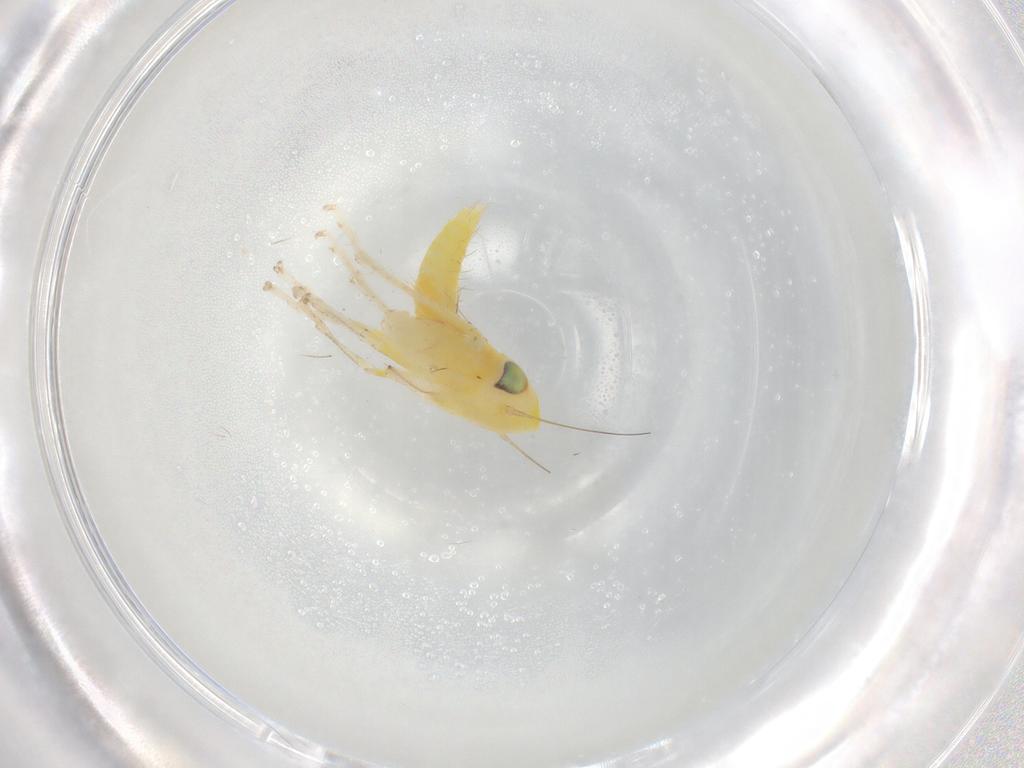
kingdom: Animalia
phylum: Arthropoda
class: Insecta
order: Hemiptera
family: Cicadellidae
